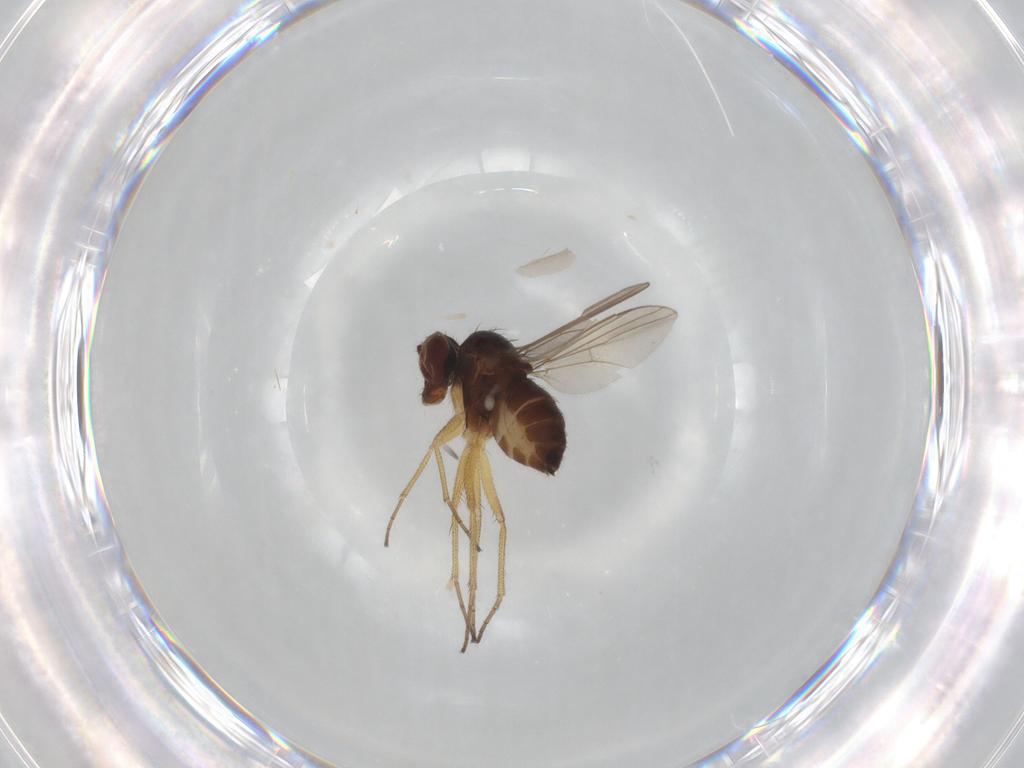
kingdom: Animalia
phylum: Arthropoda
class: Insecta
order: Diptera
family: Dolichopodidae
